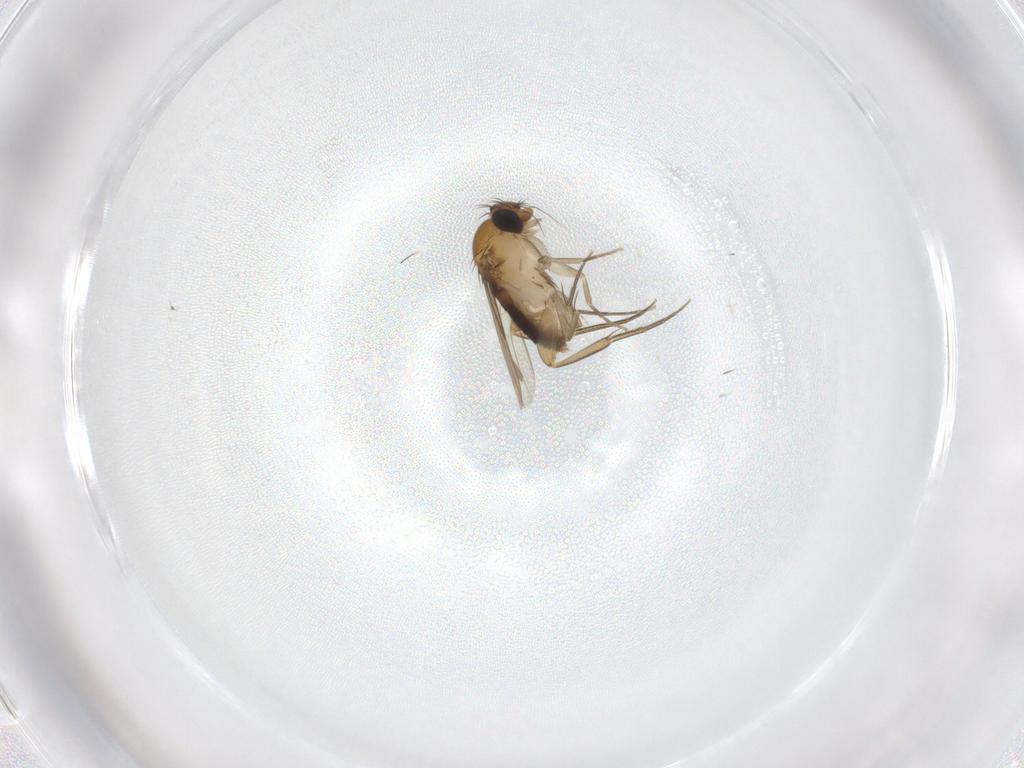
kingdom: Animalia
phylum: Arthropoda
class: Insecta
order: Diptera
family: Phoridae
